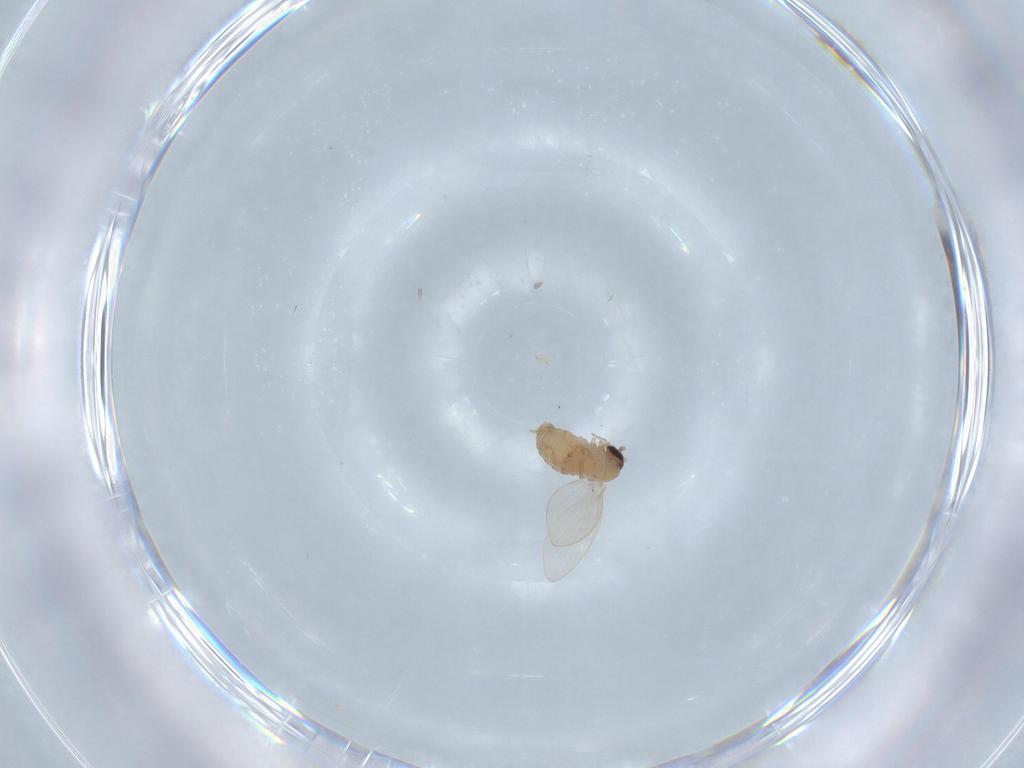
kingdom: Animalia
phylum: Arthropoda
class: Insecta
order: Diptera
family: Psychodidae
